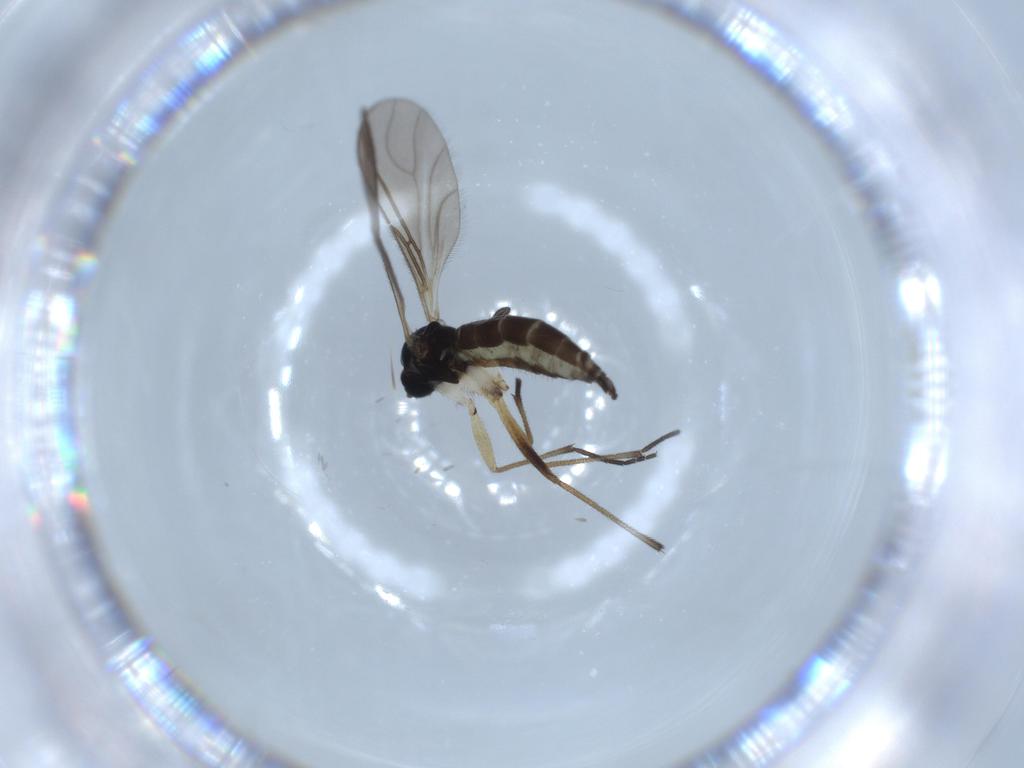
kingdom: Animalia
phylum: Arthropoda
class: Insecta
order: Diptera
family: Sciaridae
